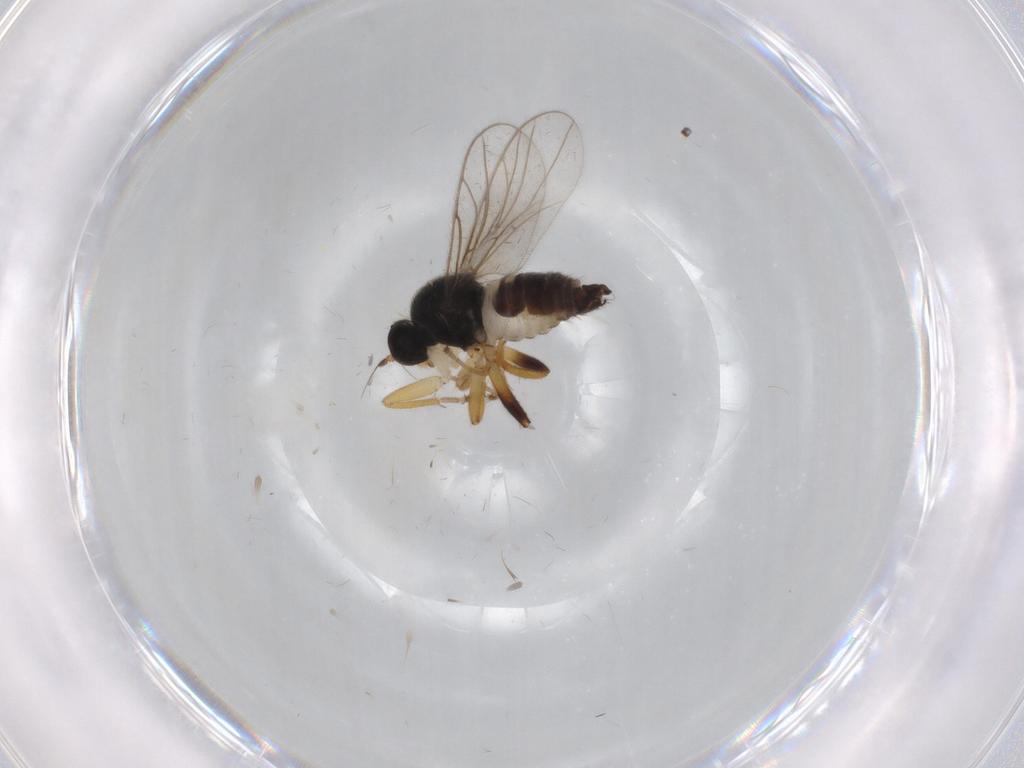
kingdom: Animalia
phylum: Arthropoda
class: Insecta
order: Diptera
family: Hybotidae
